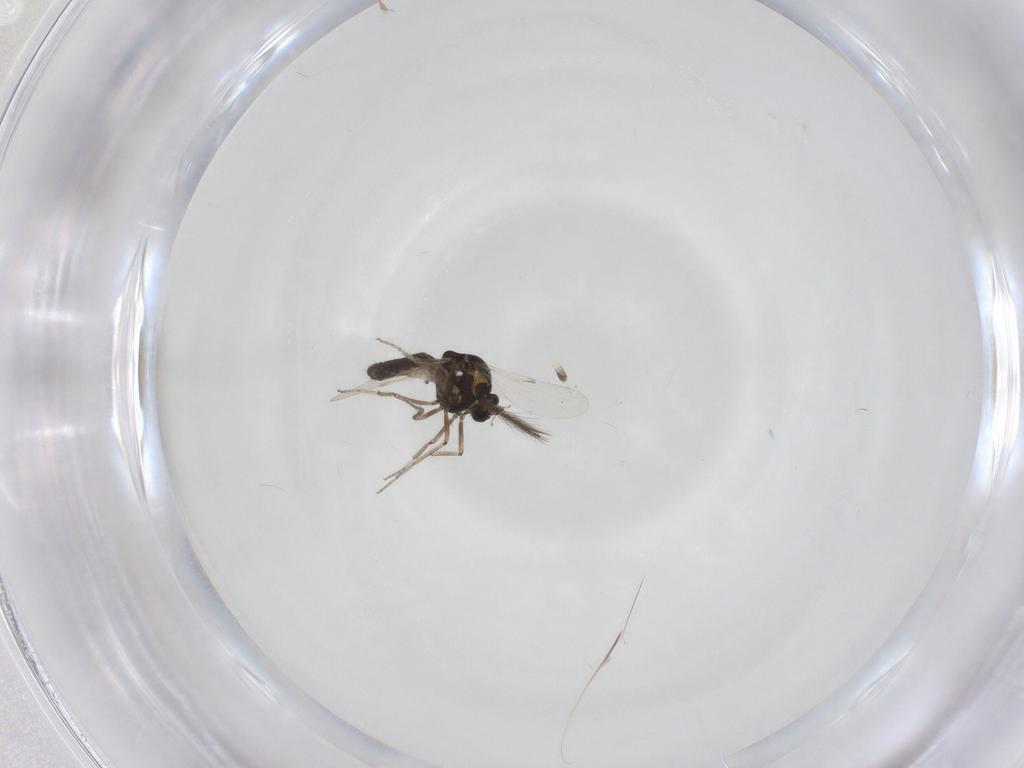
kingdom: Animalia
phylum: Arthropoda
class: Insecta
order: Diptera
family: Ceratopogonidae
